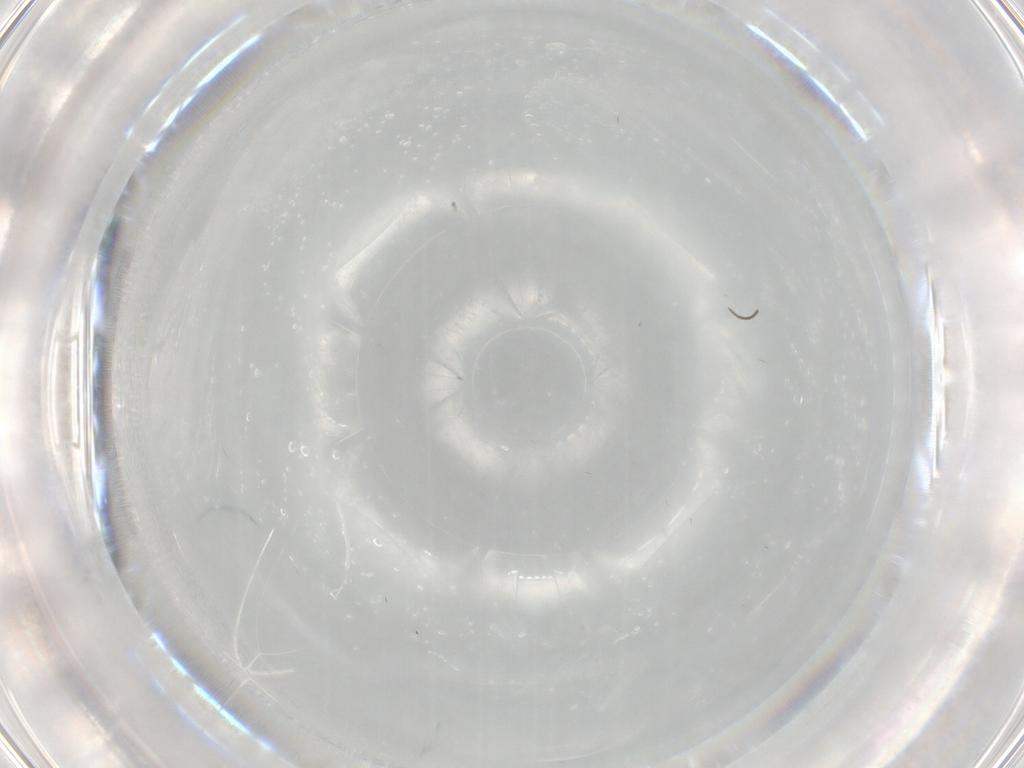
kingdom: Animalia
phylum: Arthropoda
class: Insecta
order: Diptera
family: Cecidomyiidae
